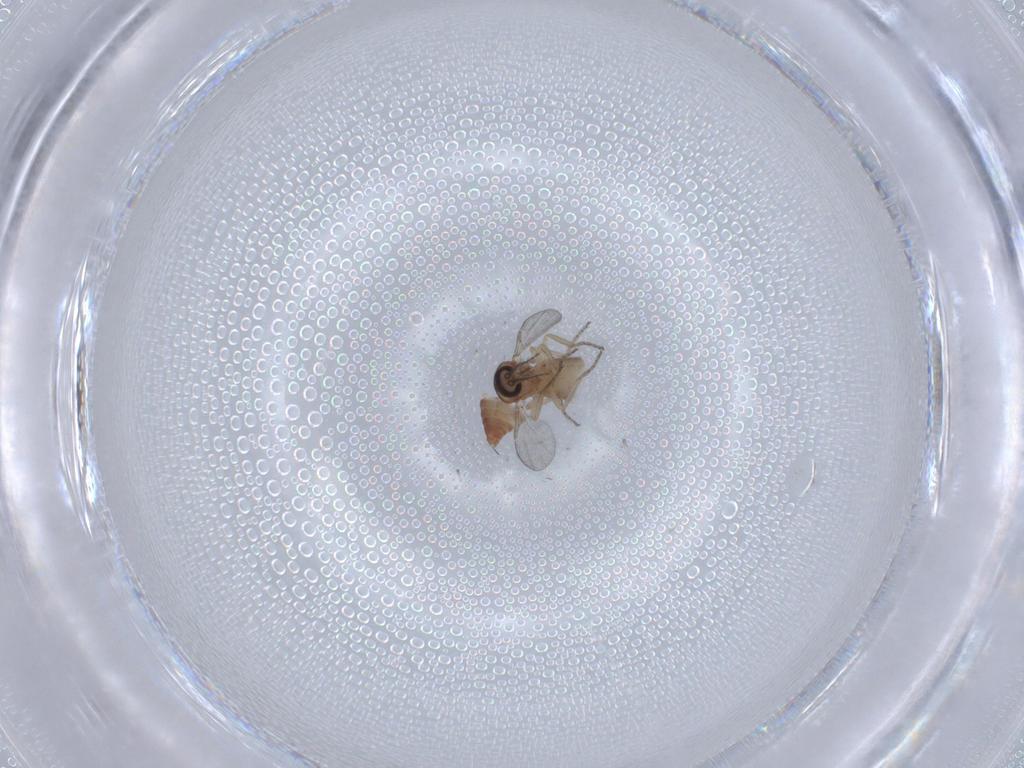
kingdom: Animalia
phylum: Arthropoda
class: Insecta
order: Diptera
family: Ceratopogonidae
